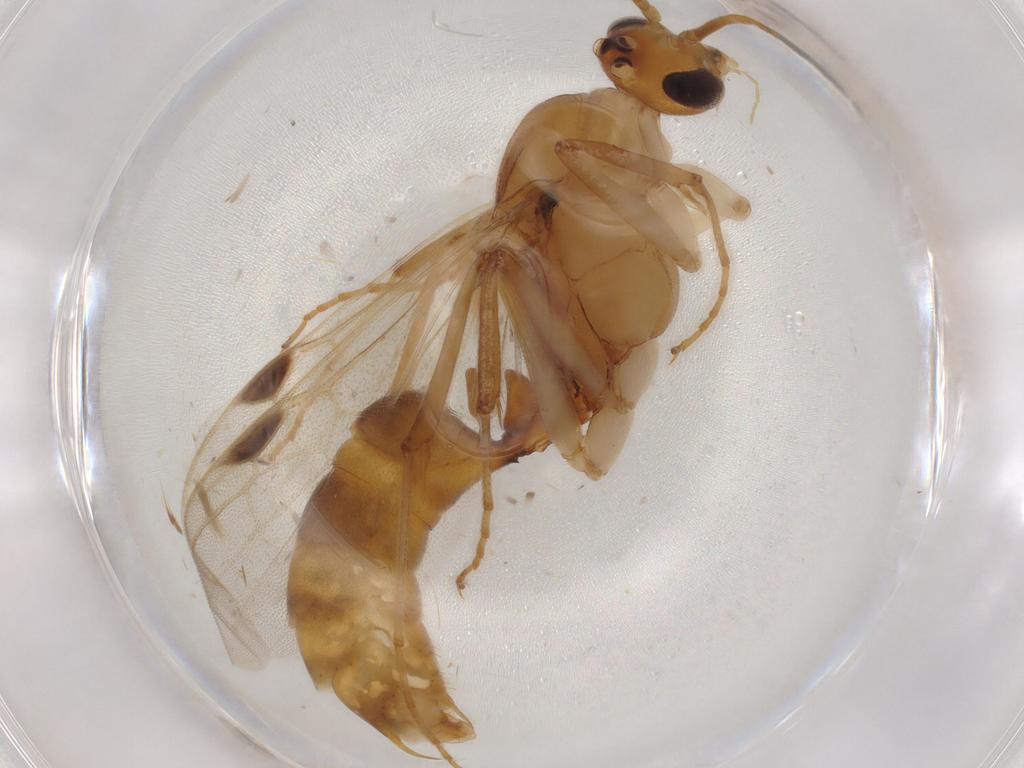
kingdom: Animalia
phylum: Arthropoda
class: Insecta
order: Hymenoptera
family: Formicidae
